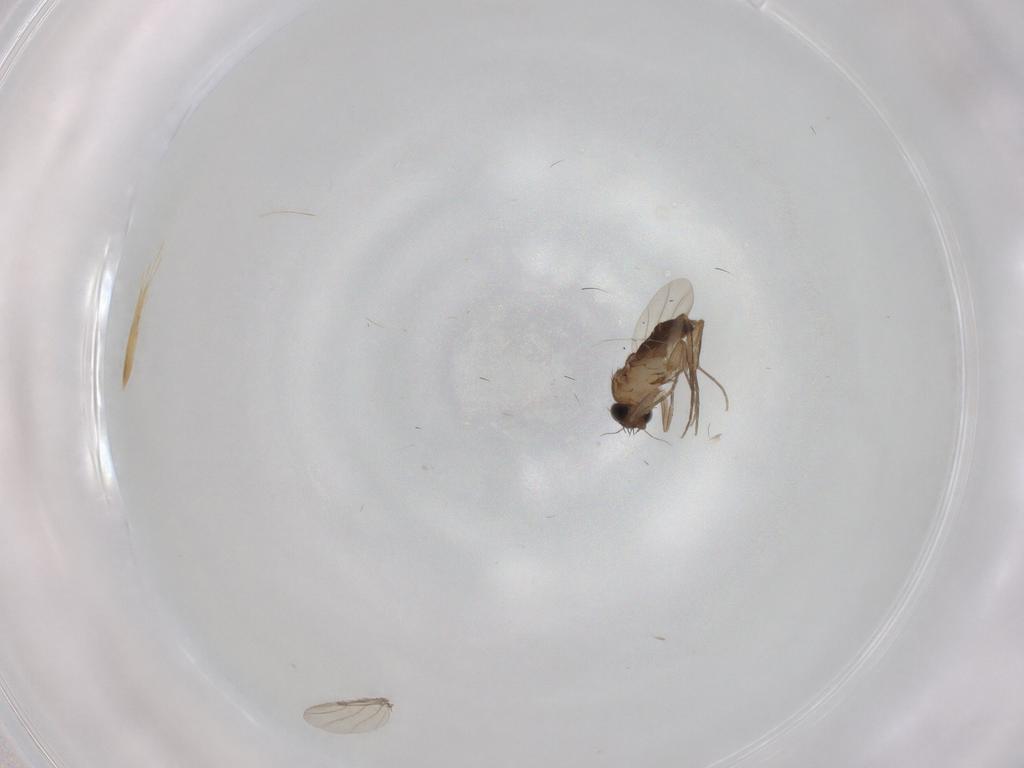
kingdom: Animalia
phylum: Arthropoda
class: Insecta
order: Diptera
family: Phoridae
